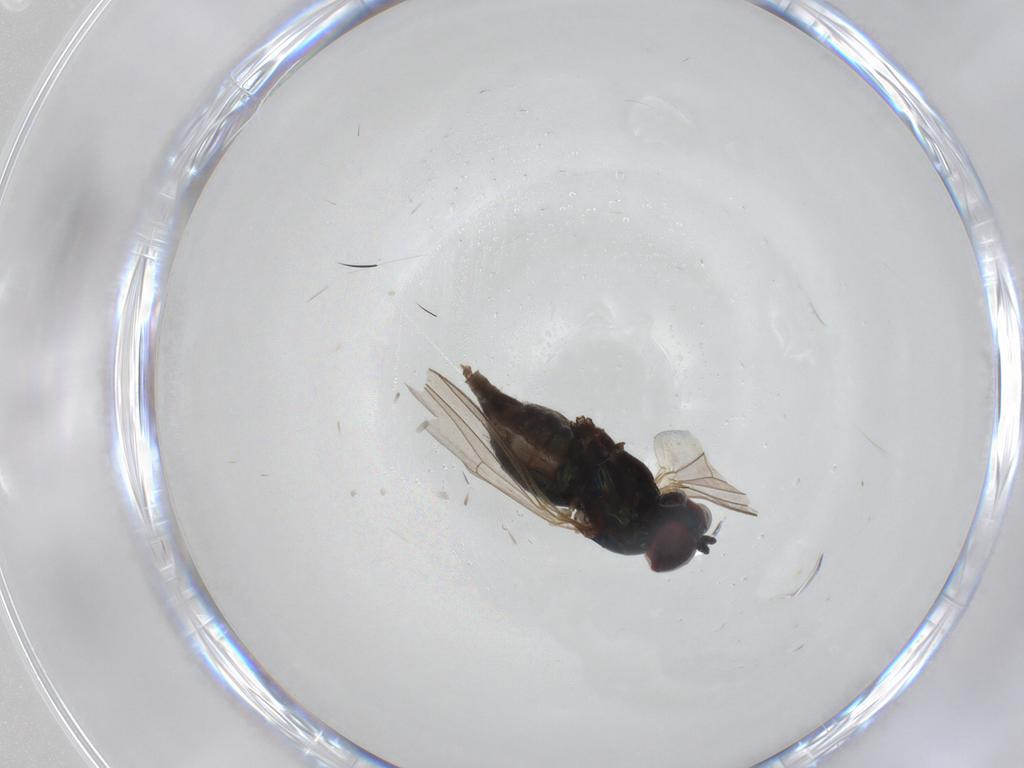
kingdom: Animalia
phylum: Arthropoda
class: Insecta
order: Diptera
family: Dolichopodidae
